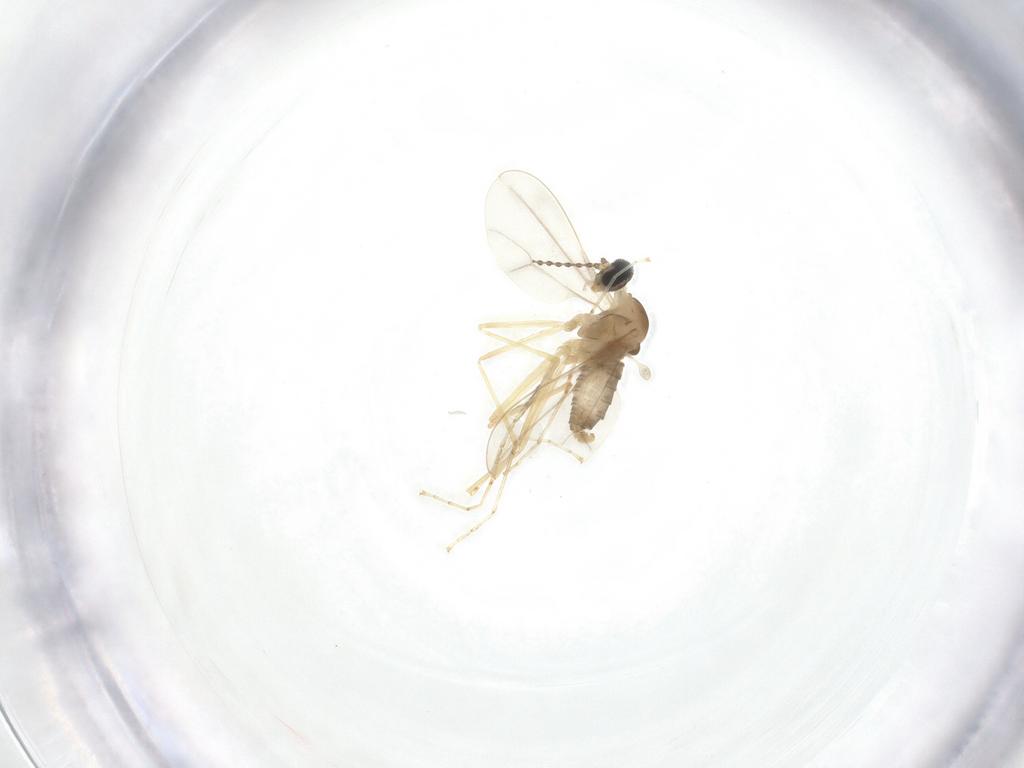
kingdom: Animalia
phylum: Arthropoda
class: Insecta
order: Diptera
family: Cecidomyiidae
